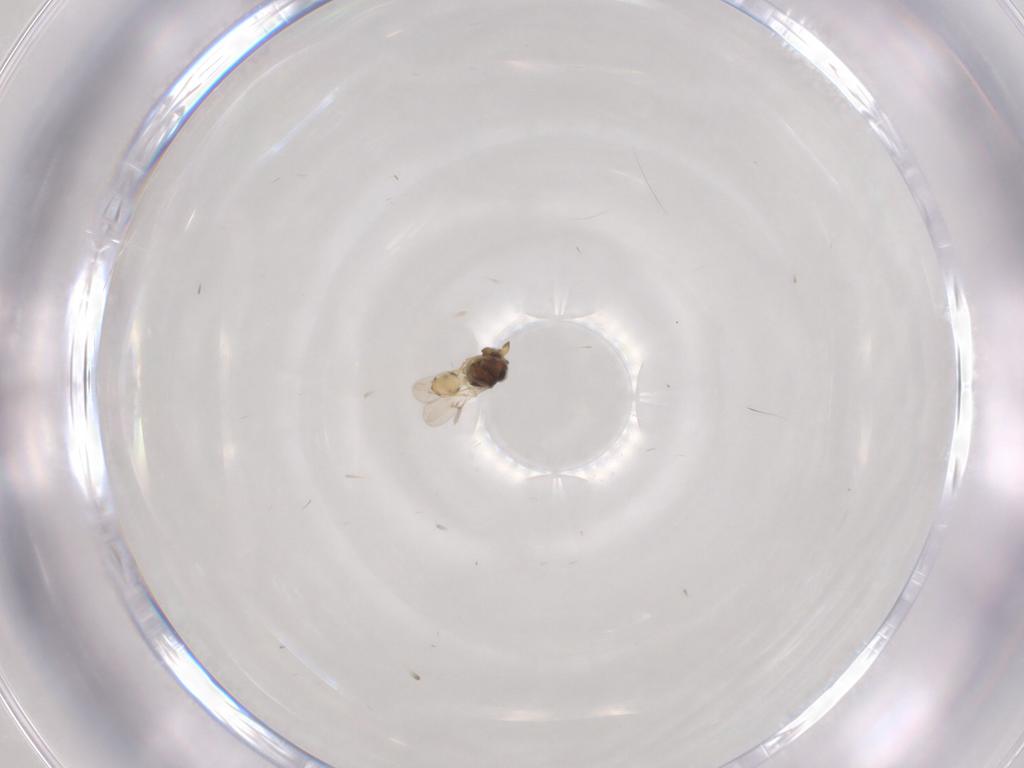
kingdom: Animalia
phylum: Arthropoda
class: Insecta
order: Hymenoptera
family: Scelionidae
